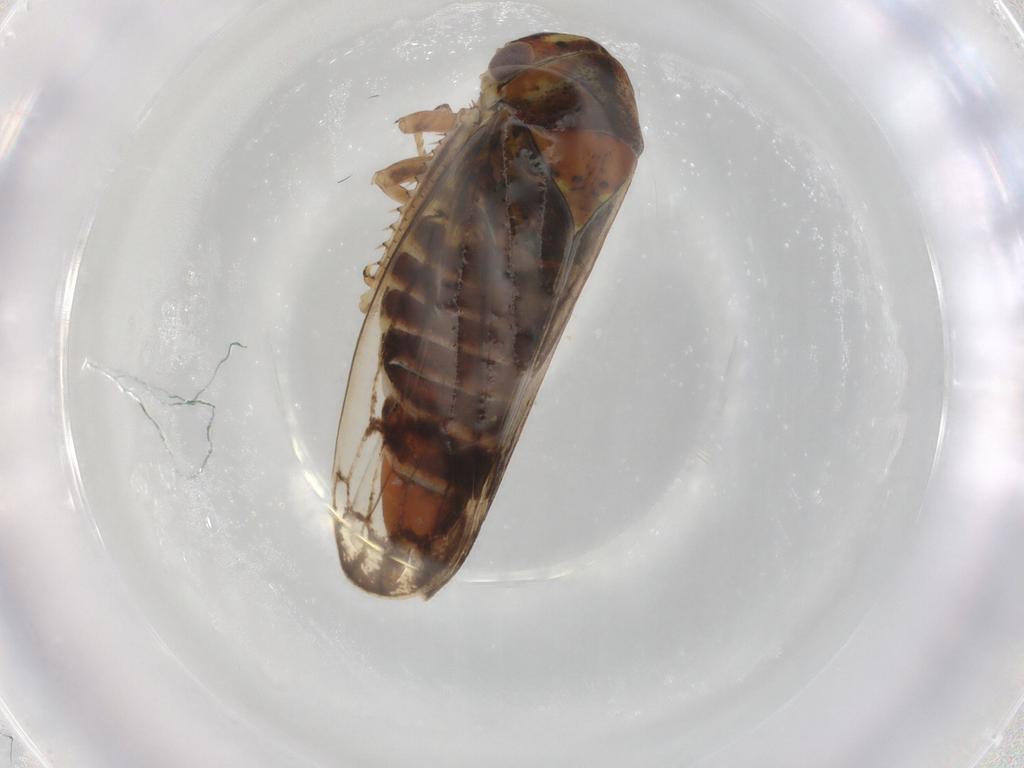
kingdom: Animalia
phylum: Arthropoda
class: Insecta
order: Hemiptera
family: Cicadellidae
